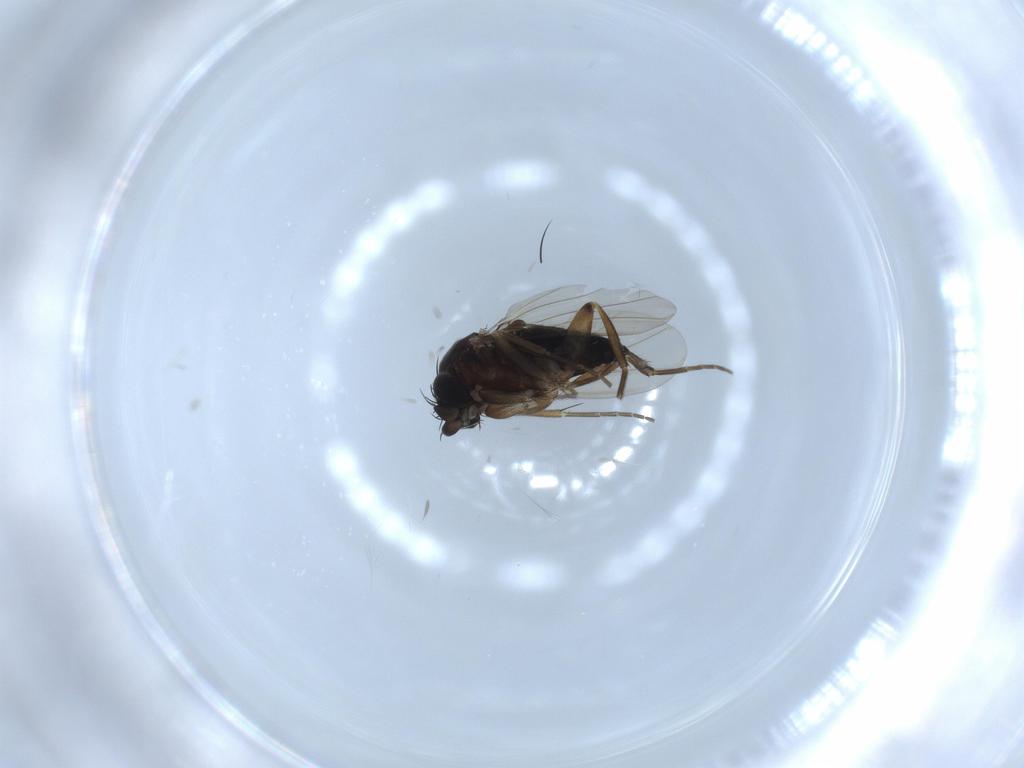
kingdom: Animalia
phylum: Arthropoda
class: Insecta
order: Diptera
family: Phoridae
